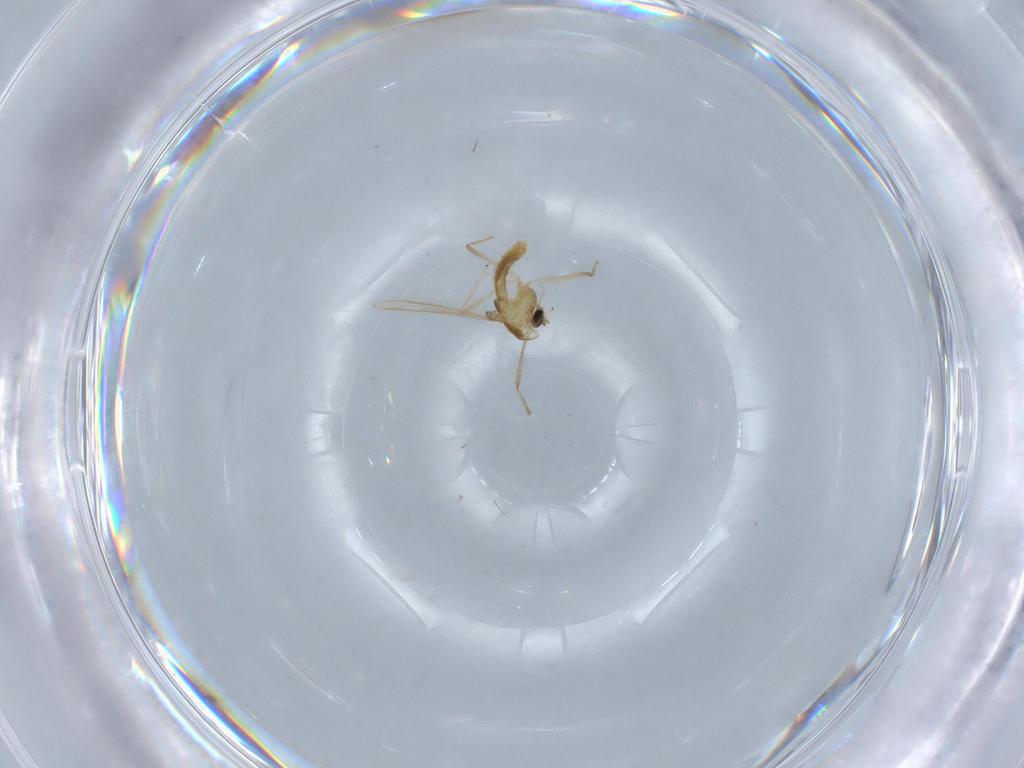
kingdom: Animalia
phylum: Arthropoda
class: Insecta
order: Diptera
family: Chironomidae
